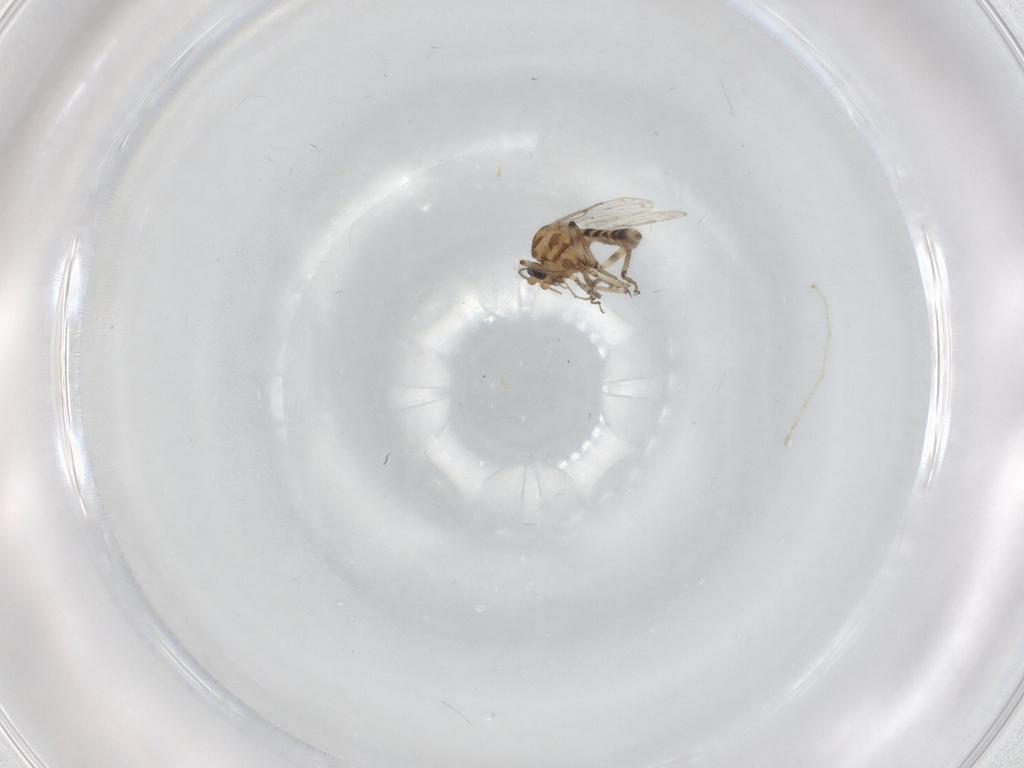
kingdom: Animalia
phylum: Arthropoda
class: Insecta
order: Diptera
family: Ceratopogonidae
